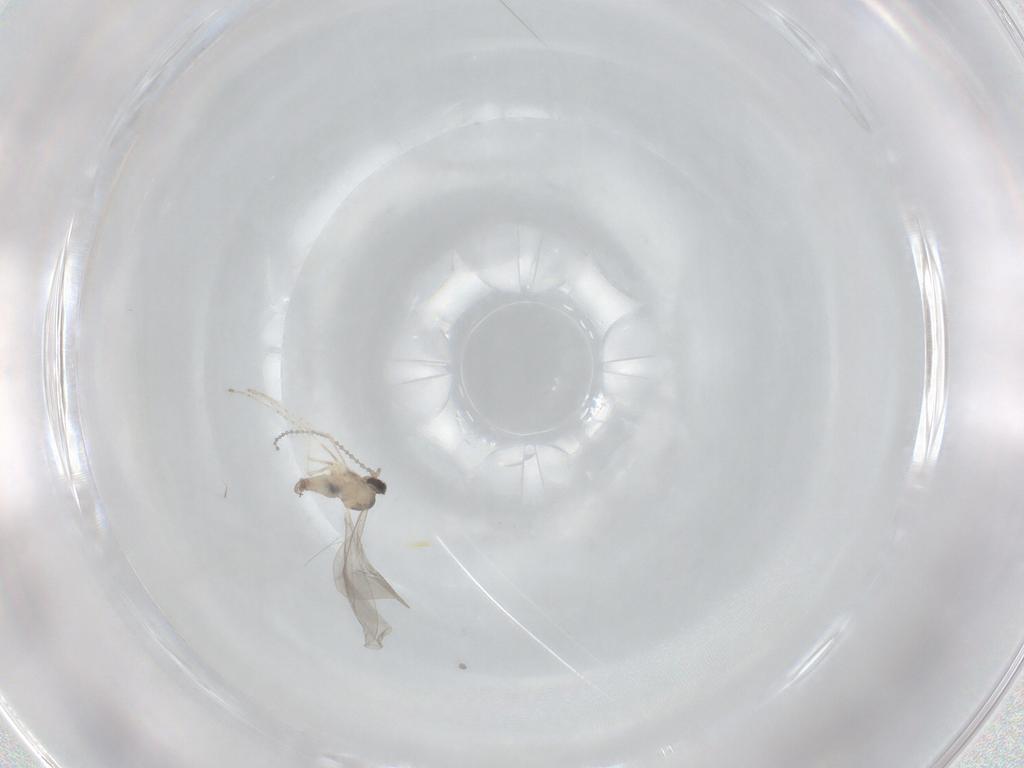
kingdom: Animalia
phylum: Arthropoda
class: Insecta
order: Diptera
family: Cecidomyiidae
